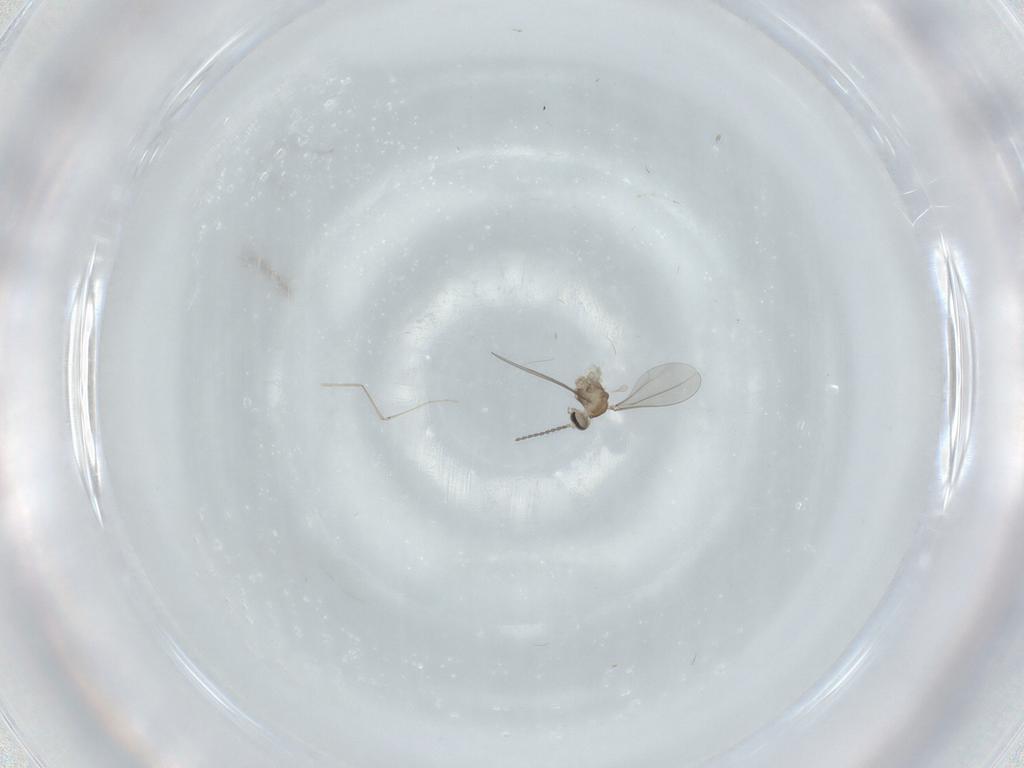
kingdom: Animalia
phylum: Arthropoda
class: Insecta
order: Diptera
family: Cecidomyiidae
